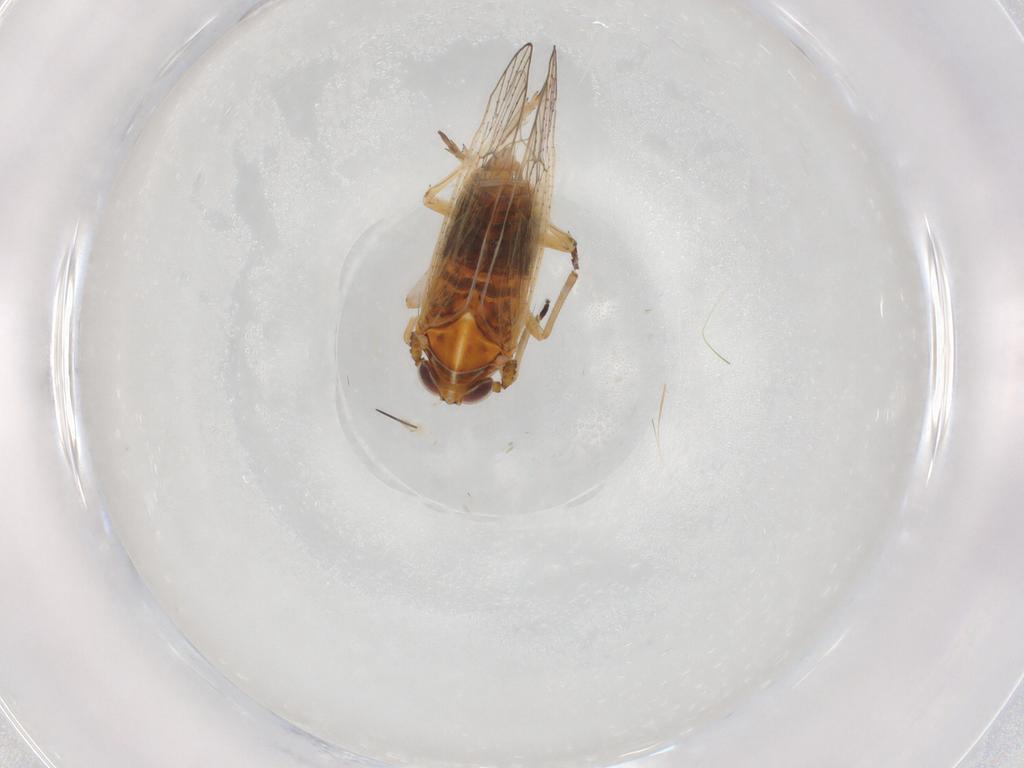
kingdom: Animalia
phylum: Arthropoda
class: Insecta
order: Hemiptera
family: Delphacidae
